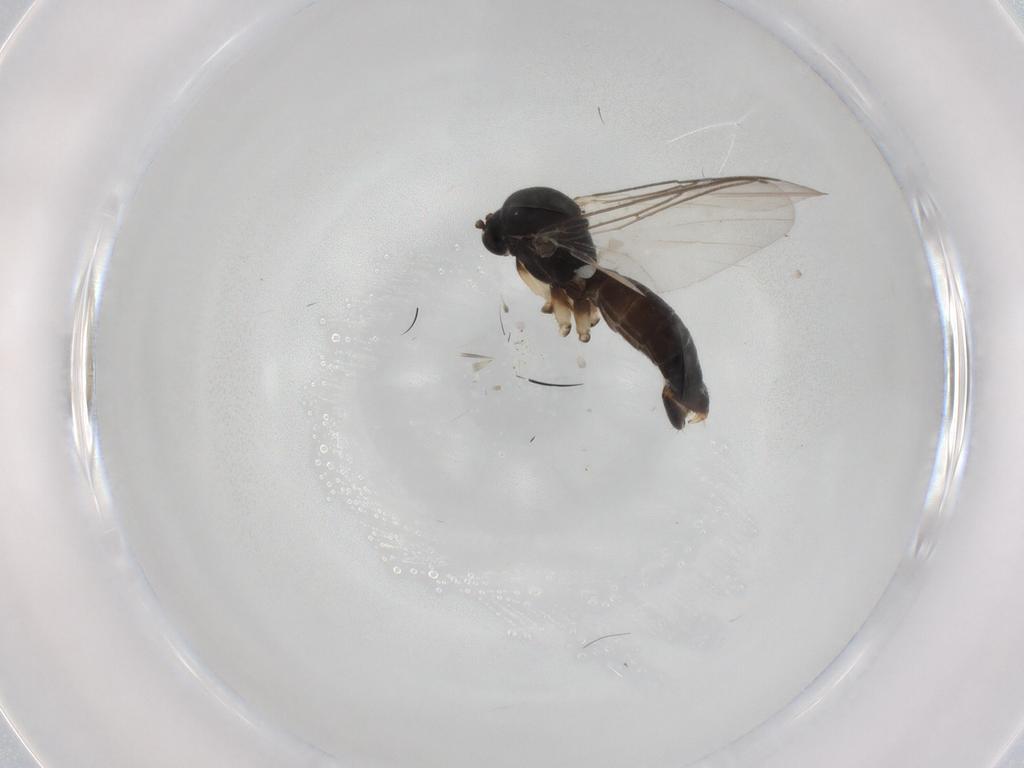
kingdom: Animalia
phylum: Arthropoda
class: Insecta
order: Diptera
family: Mycetophilidae
